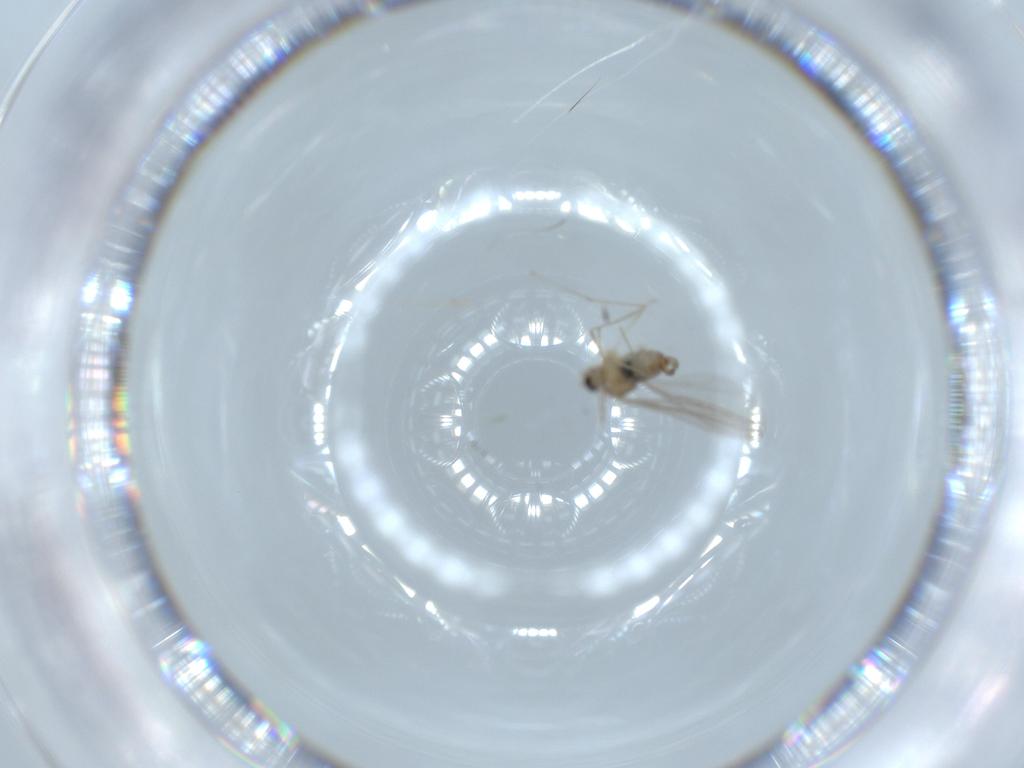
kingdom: Animalia
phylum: Arthropoda
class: Insecta
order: Diptera
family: Cecidomyiidae
